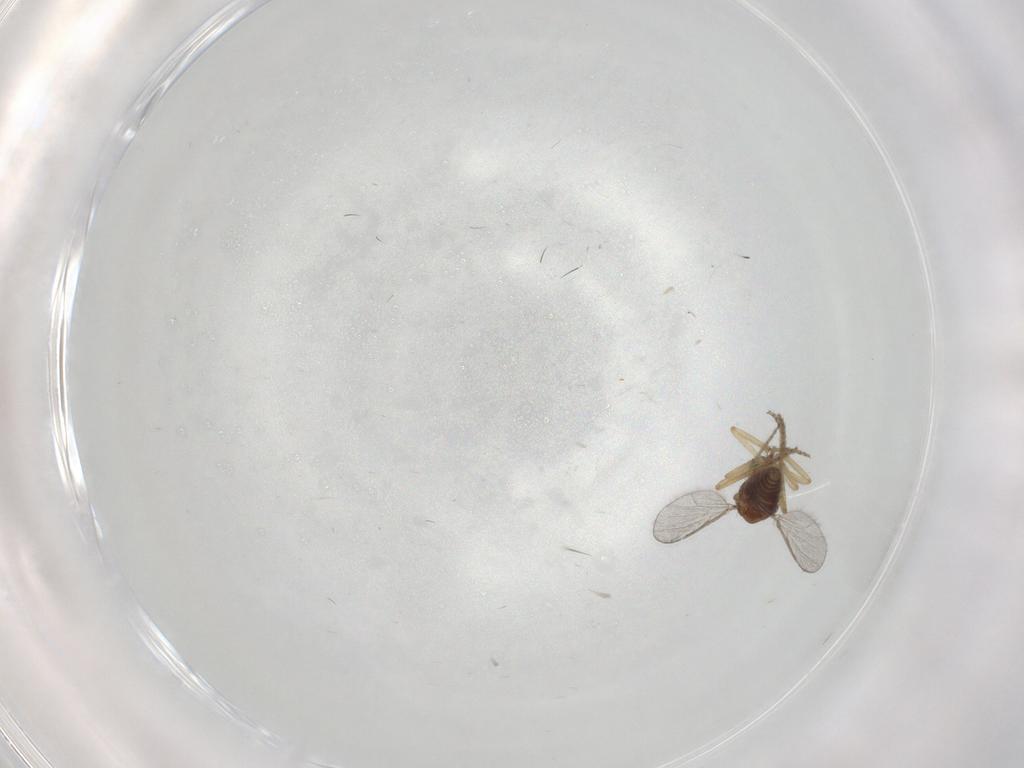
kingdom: Animalia
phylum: Arthropoda
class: Insecta
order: Diptera
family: Ceratopogonidae
